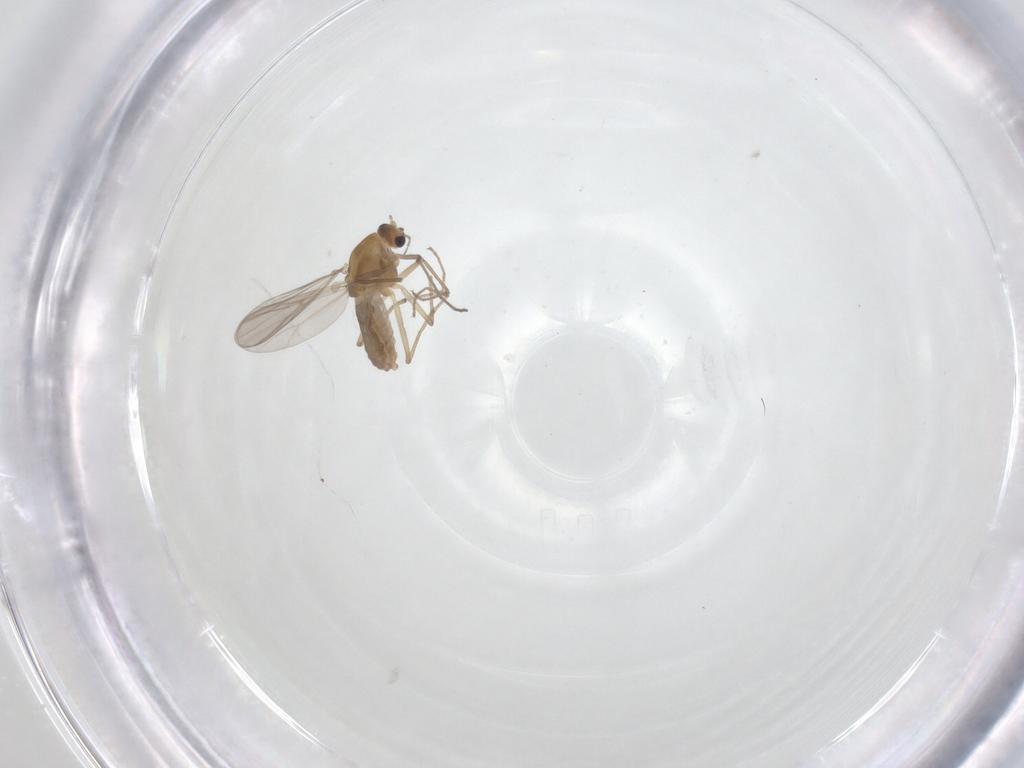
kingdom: Animalia
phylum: Arthropoda
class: Insecta
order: Diptera
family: Chironomidae
